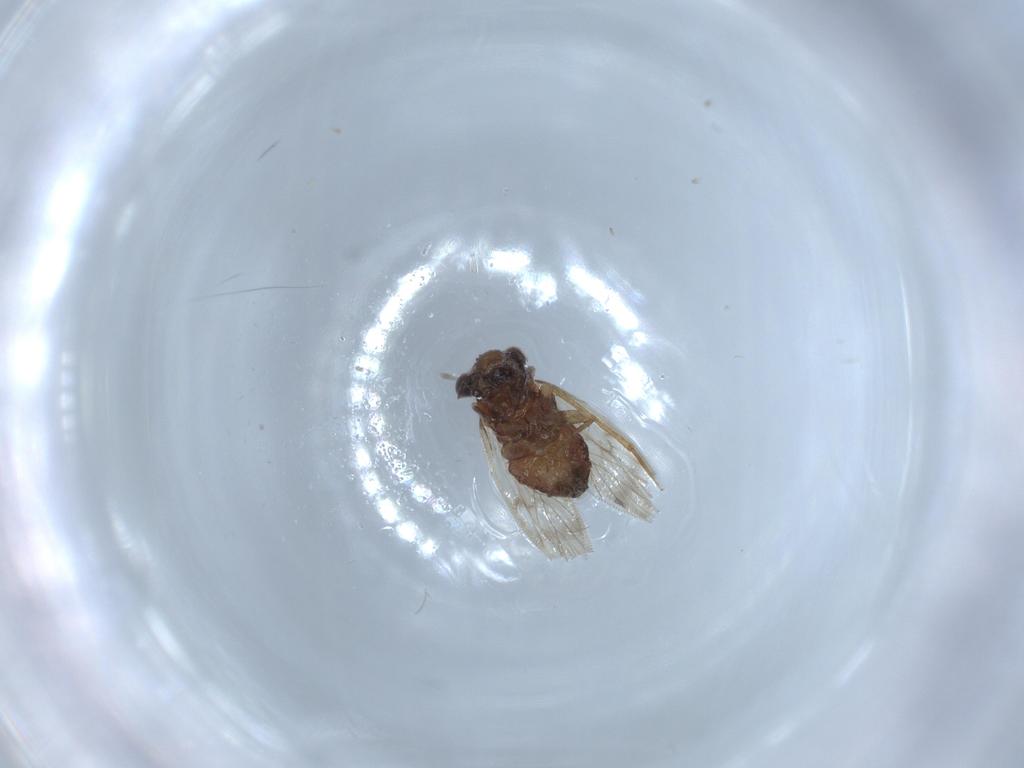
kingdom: Animalia
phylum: Arthropoda
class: Insecta
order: Psocodea
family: Lepidopsocidae
